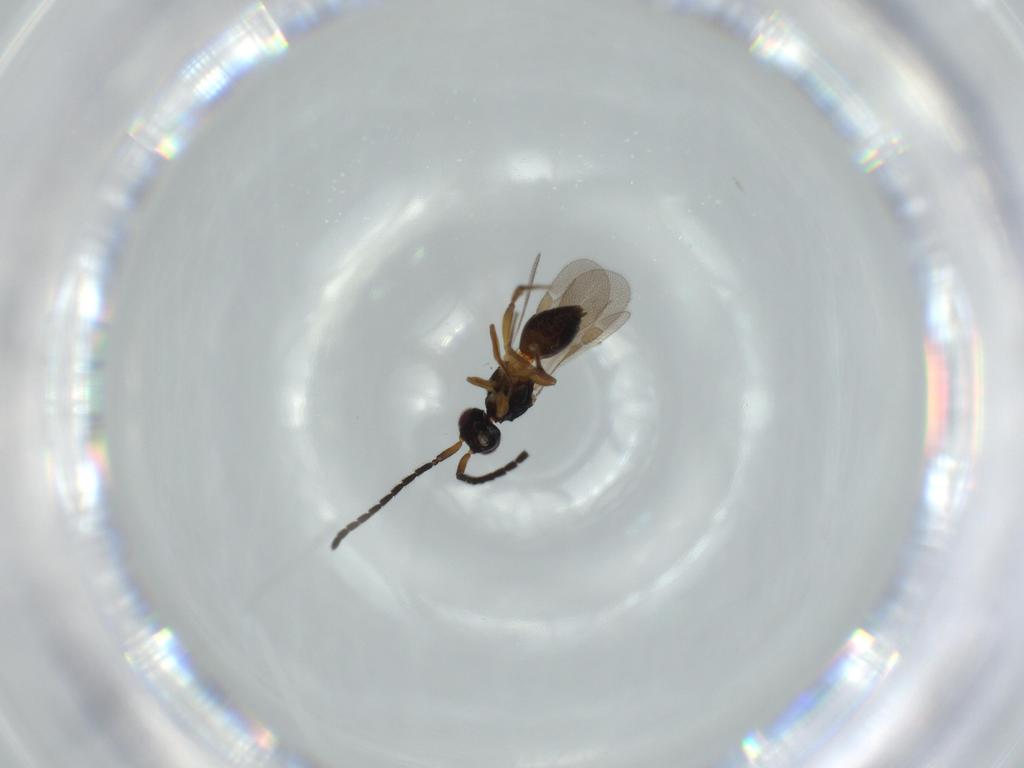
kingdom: Animalia
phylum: Arthropoda
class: Insecta
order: Hymenoptera
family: Megaspilidae
